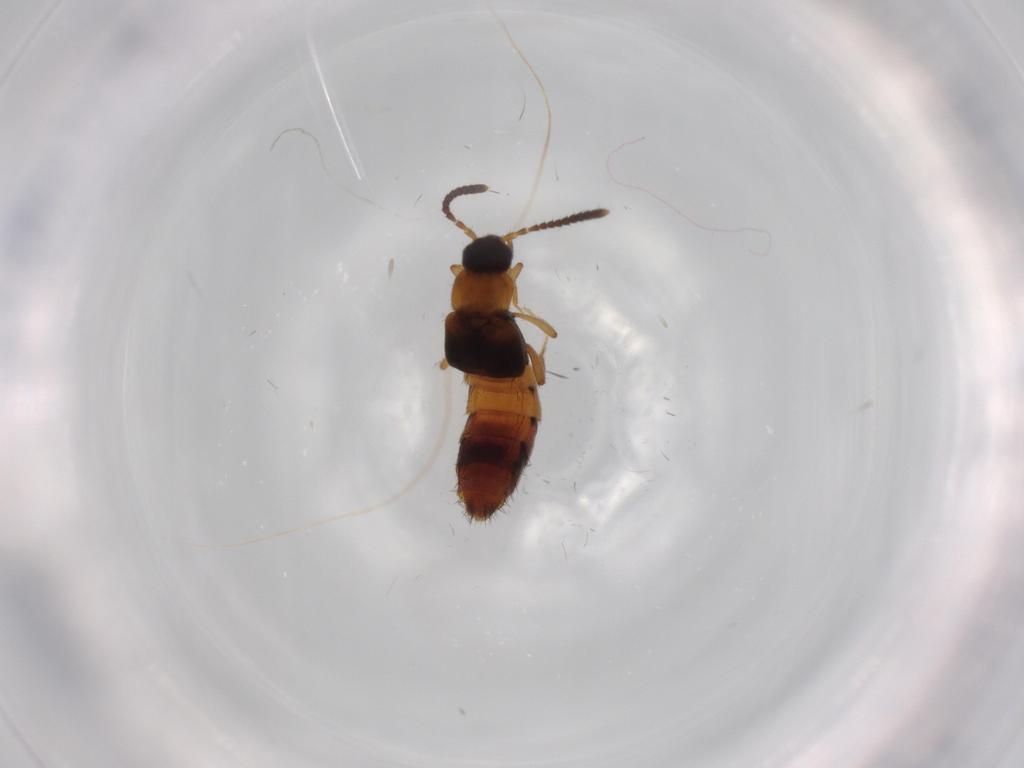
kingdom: Animalia
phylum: Arthropoda
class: Insecta
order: Coleoptera
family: Staphylinidae
